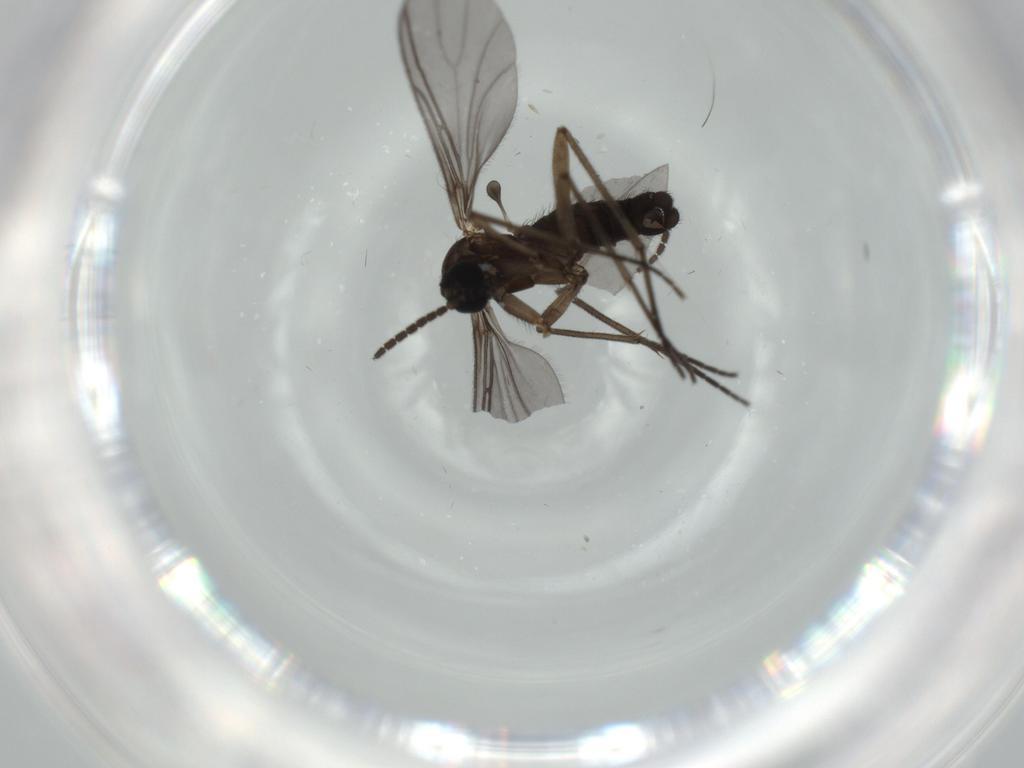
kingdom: Animalia
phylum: Arthropoda
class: Insecta
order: Diptera
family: Sciaridae
